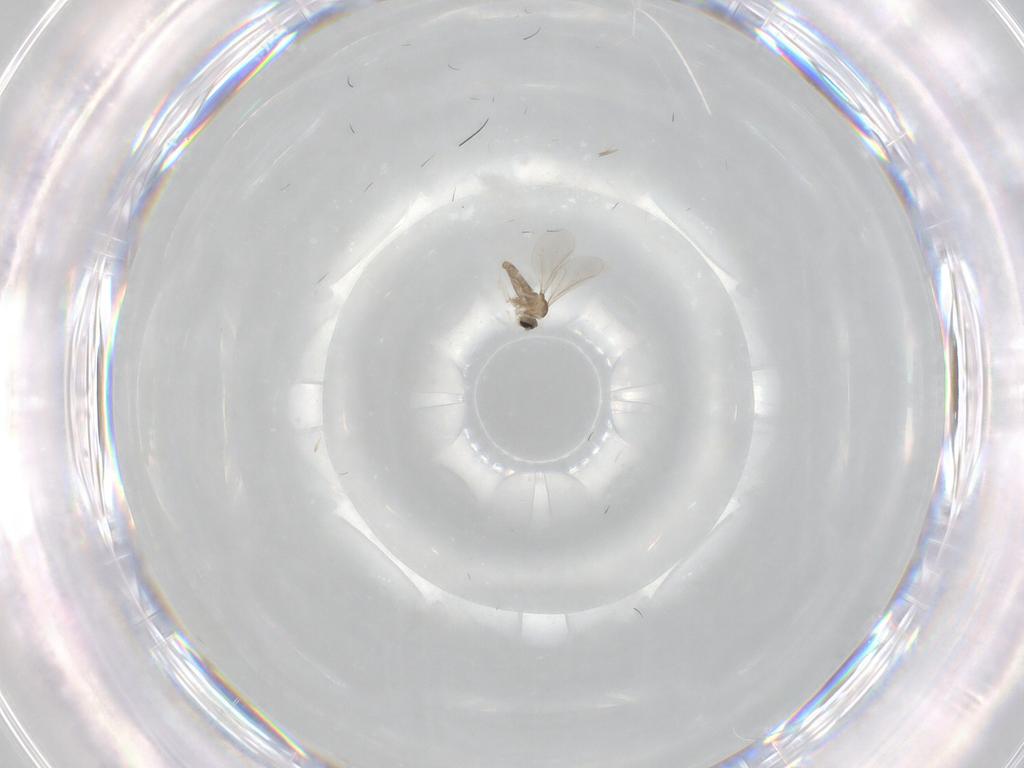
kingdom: Animalia
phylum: Arthropoda
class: Insecta
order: Diptera
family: Cecidomyiidae
